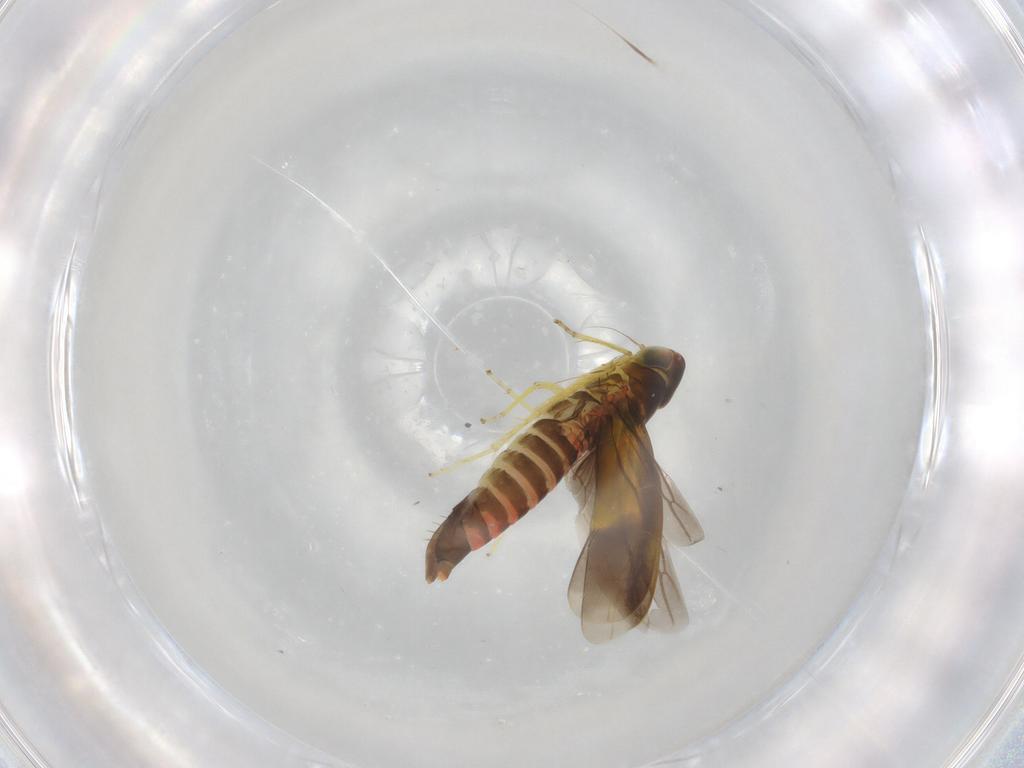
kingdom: Animalia
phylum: Arthropoda
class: Insecta
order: Hemiptera
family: Cicadellidae
